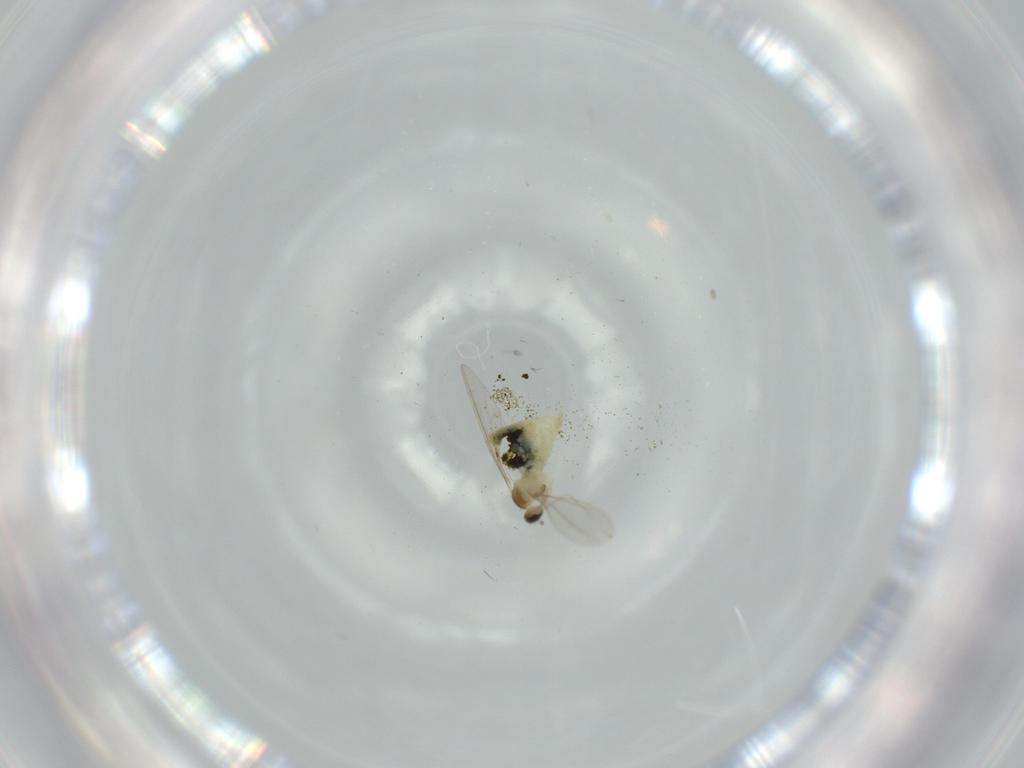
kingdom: Animalia
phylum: Arthropoda
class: Insecta
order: Diptera
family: Cecidomyiidae
